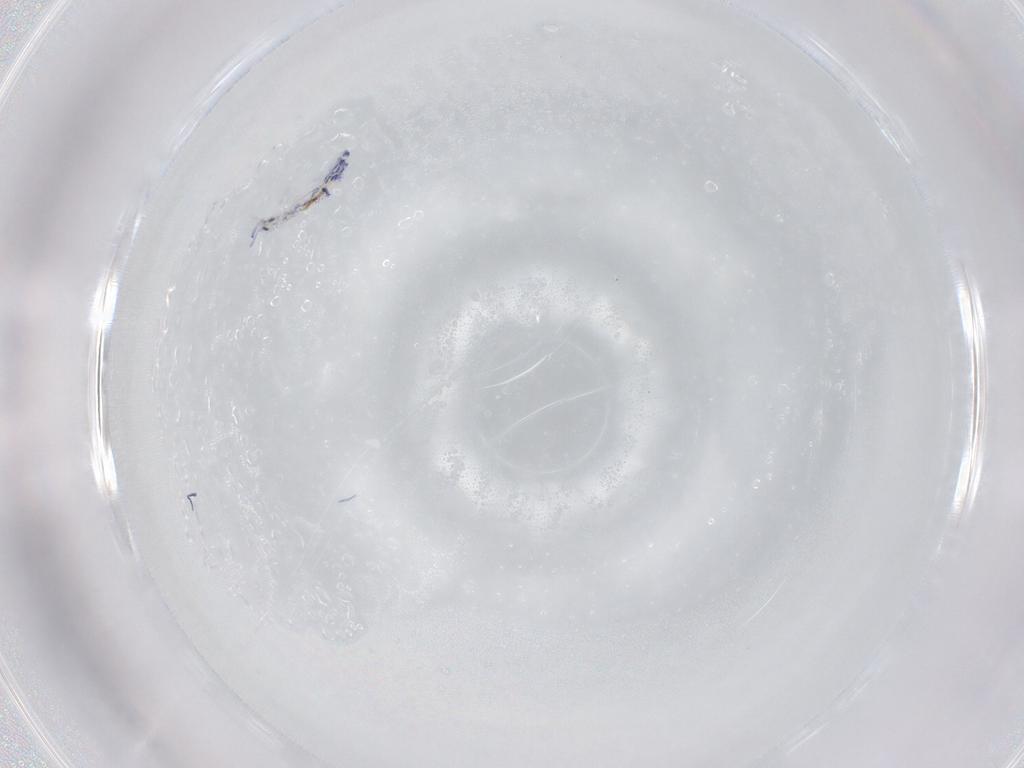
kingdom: Animalia
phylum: Arthropoda
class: Collembola
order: Entomobryomorpha
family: Entomobryidae
